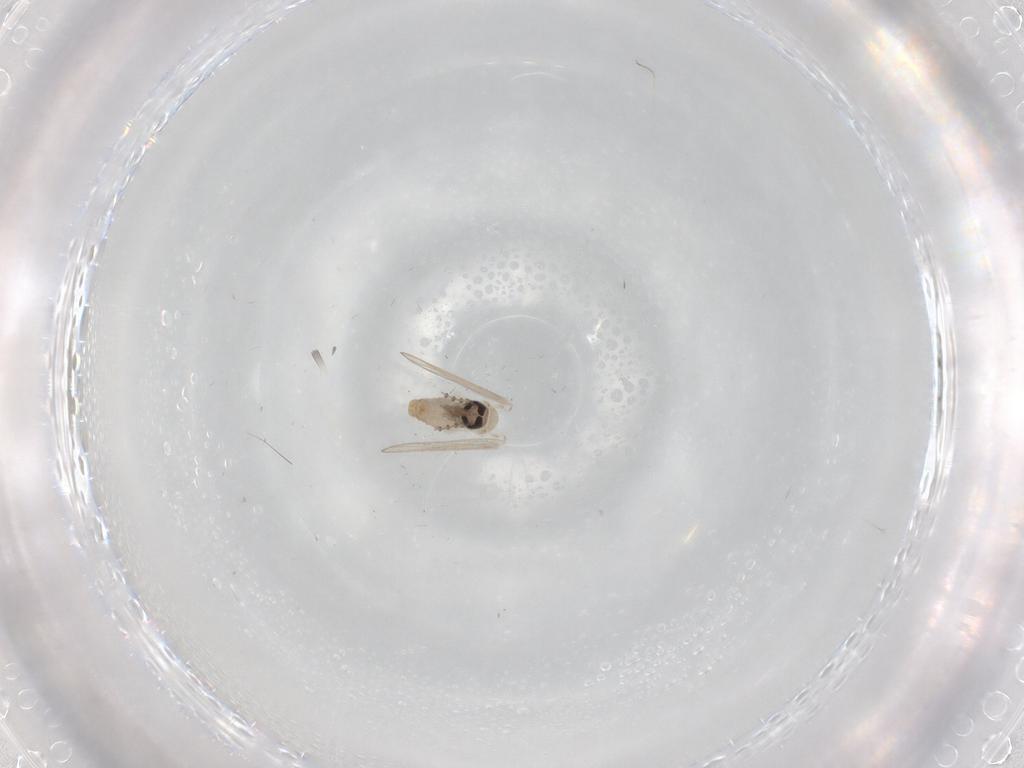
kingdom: Animalia
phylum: Arthropoda
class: Insecta
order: Diptera
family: Psychodidae
